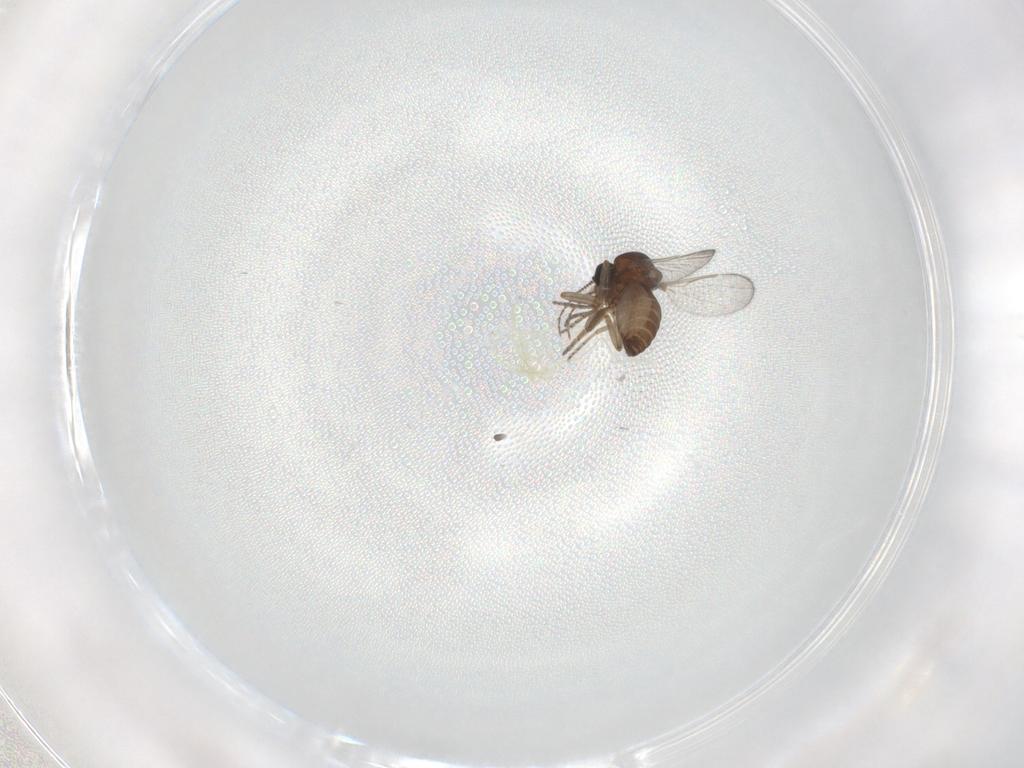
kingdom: Animalia
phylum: Arthropoda
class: Insecta
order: Diptera
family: Ceratopogonidae
